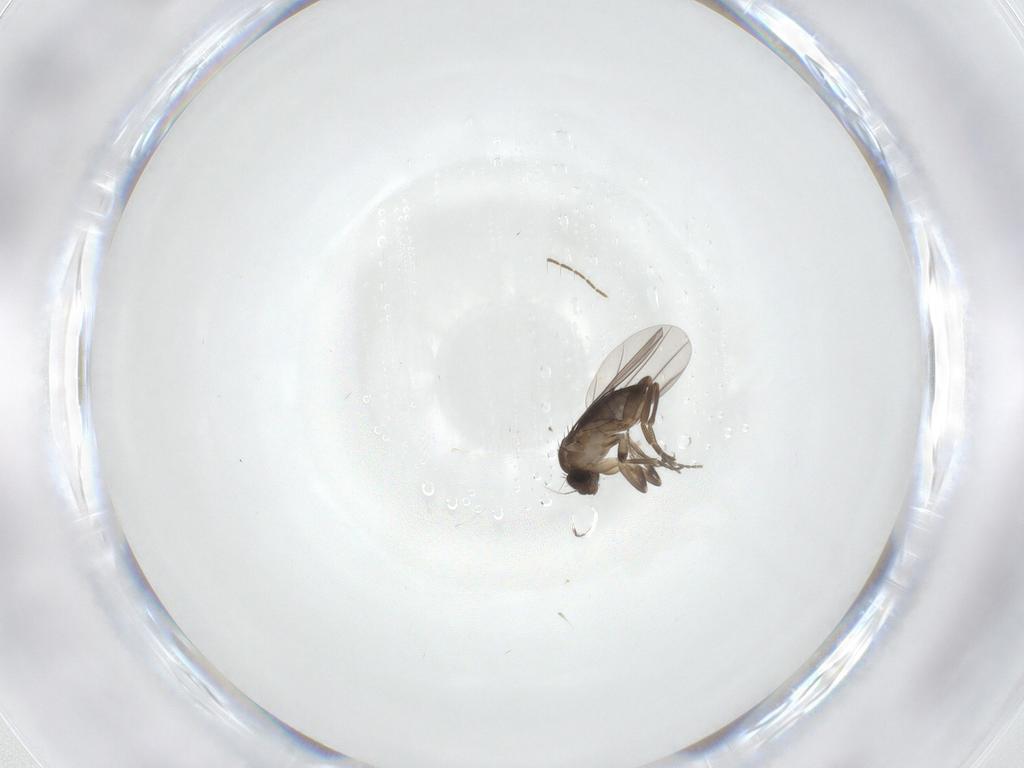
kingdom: Animalia
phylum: Arthropoda
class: Insecta
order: Diptera
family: Ceratopogonidae
